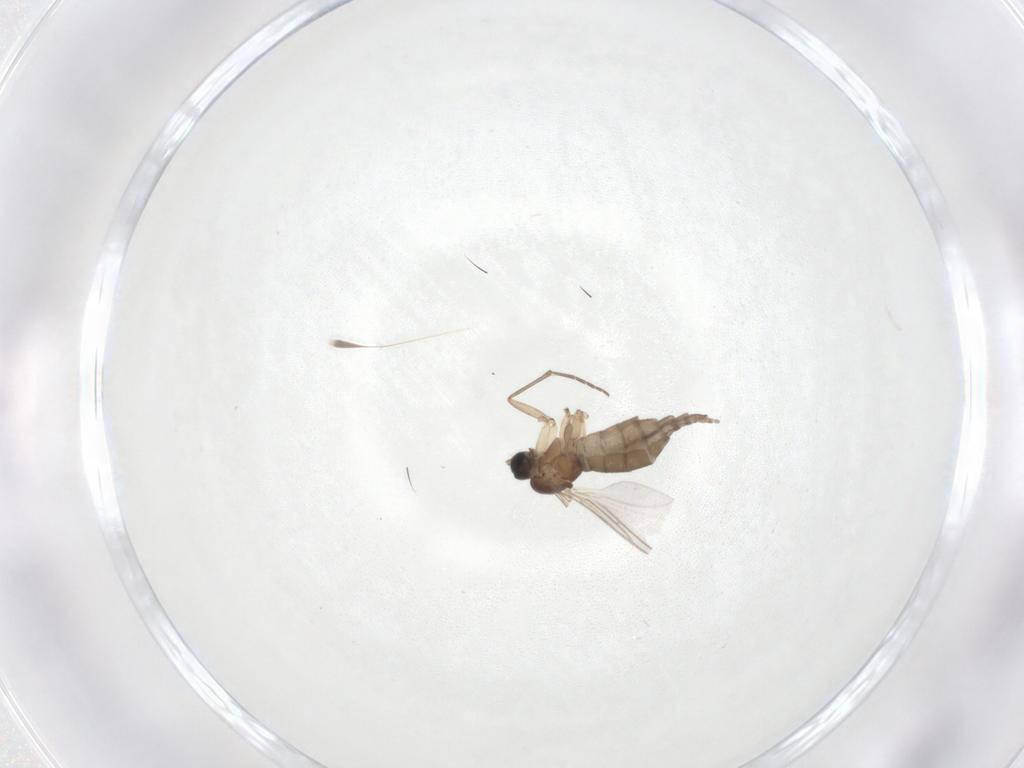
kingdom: Animalia
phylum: Arthropoda
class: Insecta
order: Diptera
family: Sciaridae
